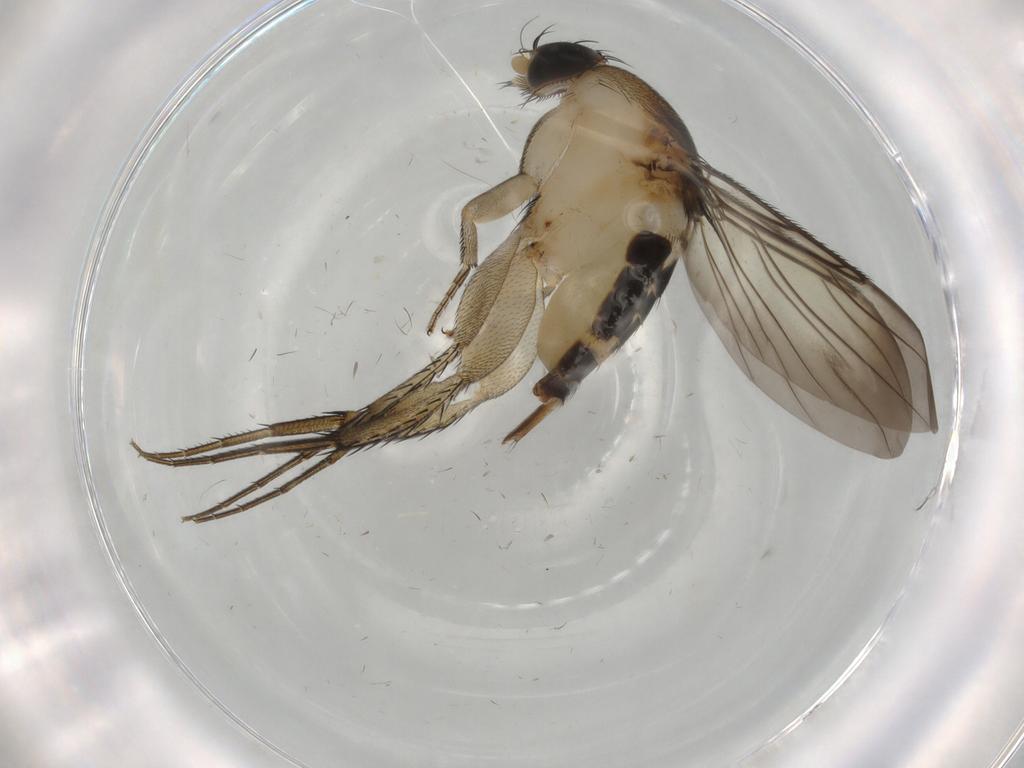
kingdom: Animalia
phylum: Arthropoda
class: Insecta
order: Diptera
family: Phoridae
